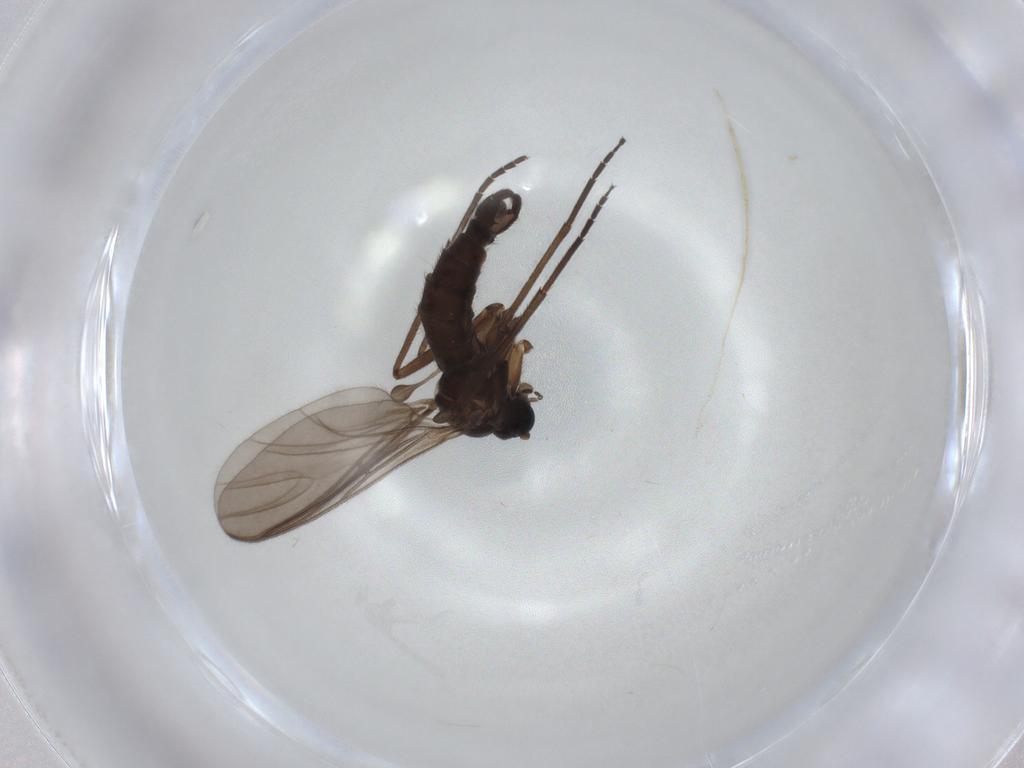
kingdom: Animalia
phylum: Arthropoda
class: Insecta
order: Diptera
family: Sciaridae
